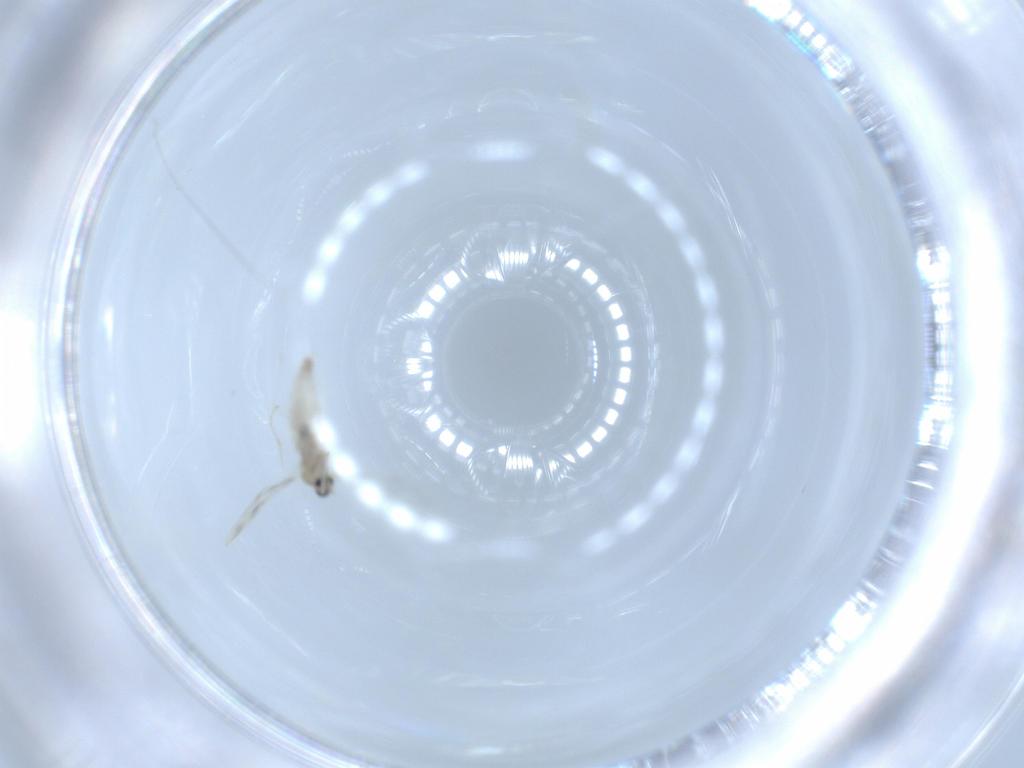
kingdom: Animalia
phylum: Arthropoda
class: Insecta
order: Diptera
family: Cecidomyiidae
